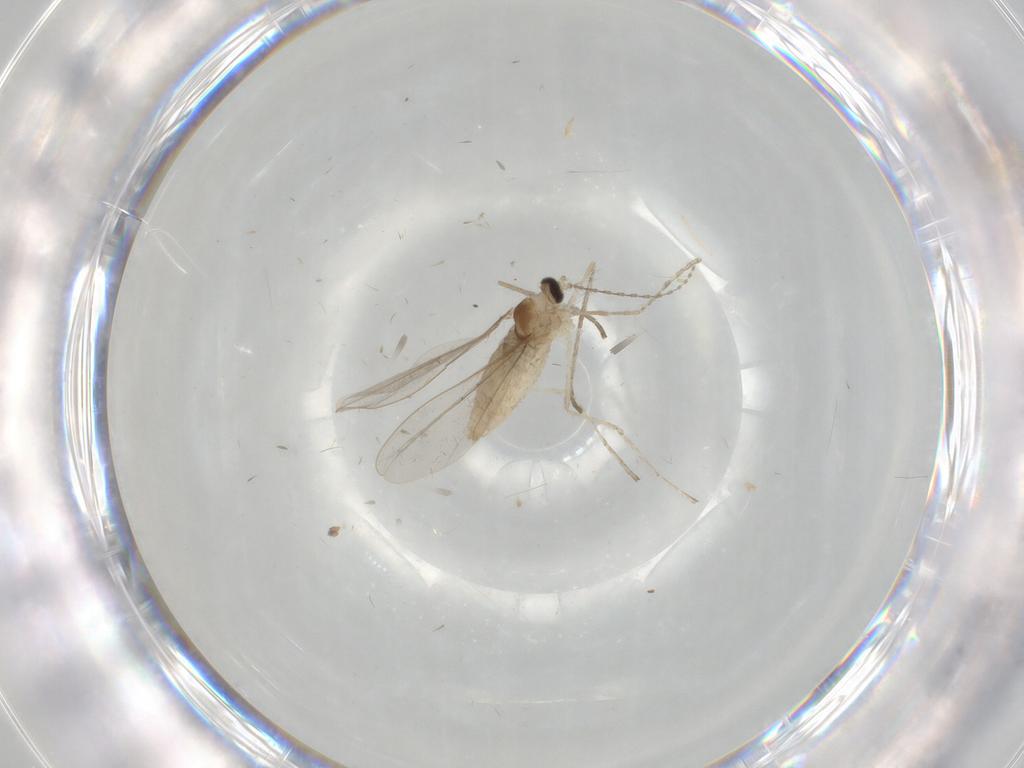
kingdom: Animalia
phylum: Arthropoda
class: Insecta
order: Diptera
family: Cecidomyiidae
